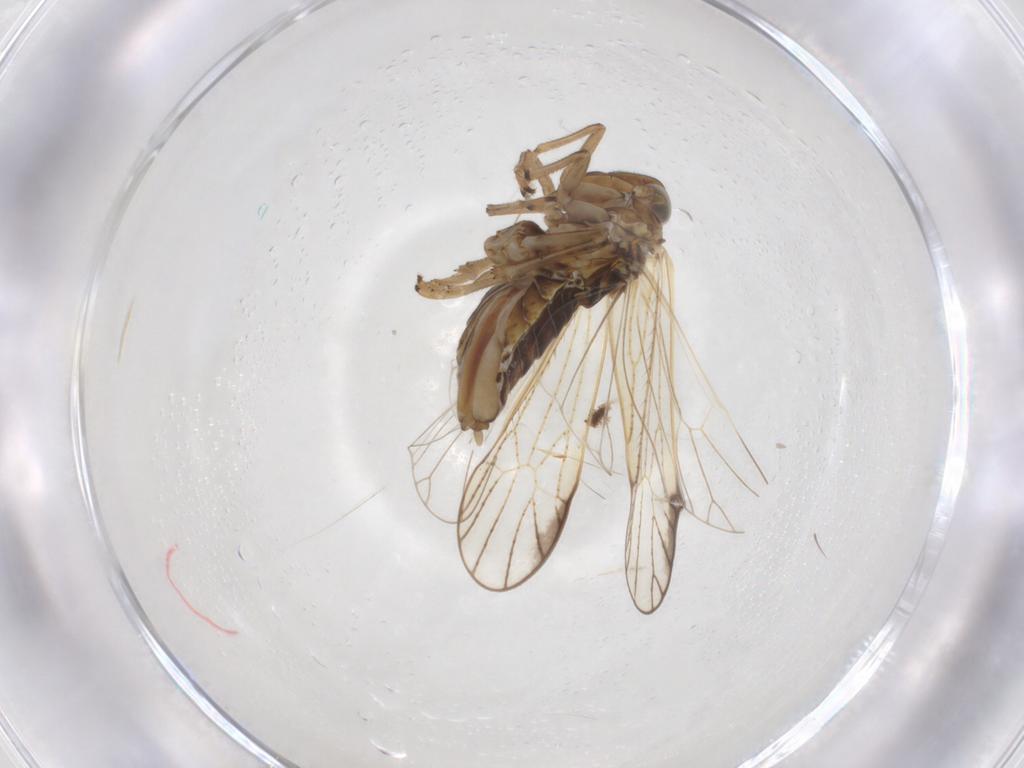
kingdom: Animalia
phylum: Arthropoda
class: Insecta
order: Hemiptera
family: Delphacidae
